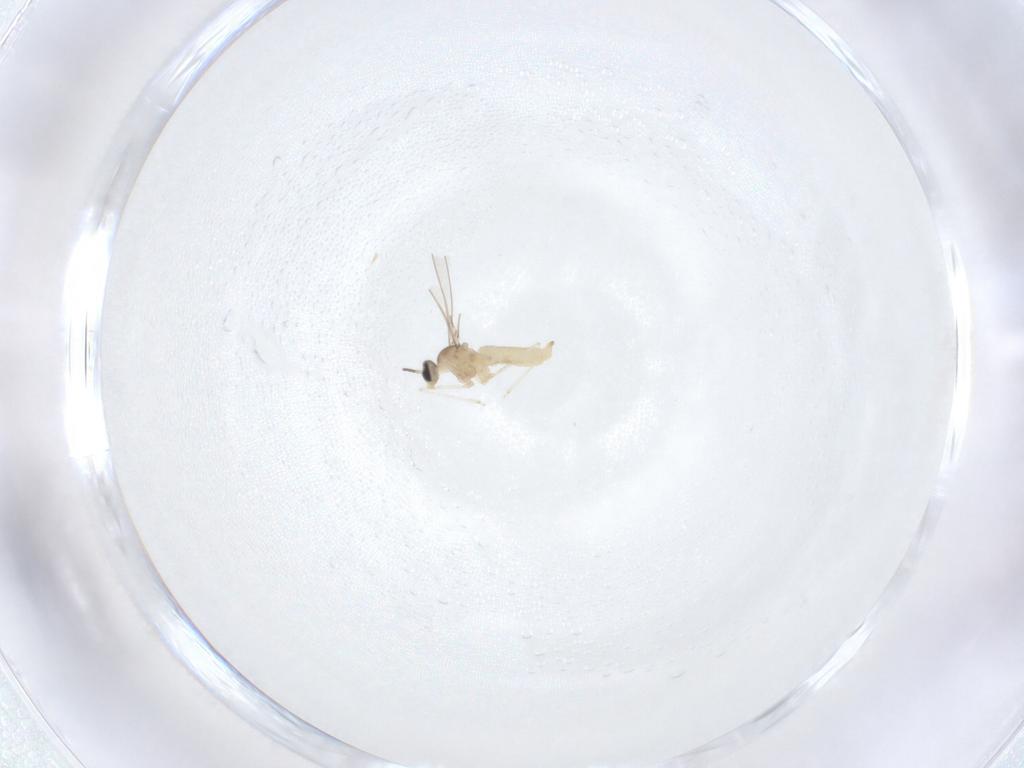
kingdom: Animalia
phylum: Arthropoda
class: Insecta
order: Diptera
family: Cecidomyiidae
